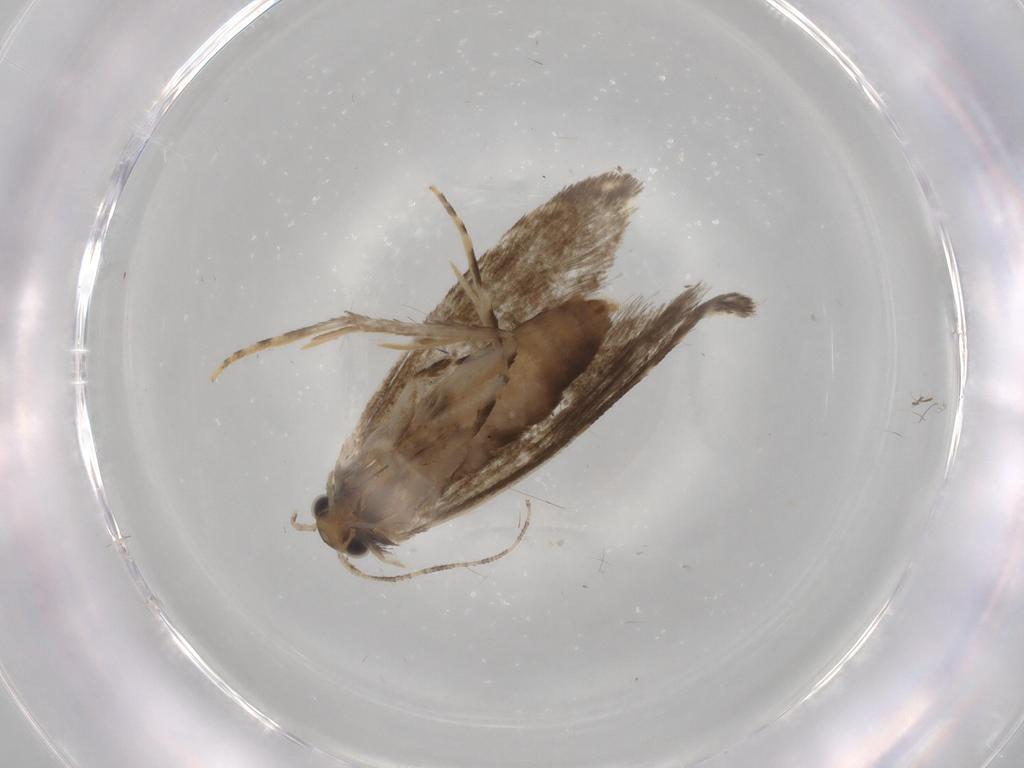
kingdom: Animalia
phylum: Arthropoda
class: Insecta
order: Lepidoptera
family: Tineidae
